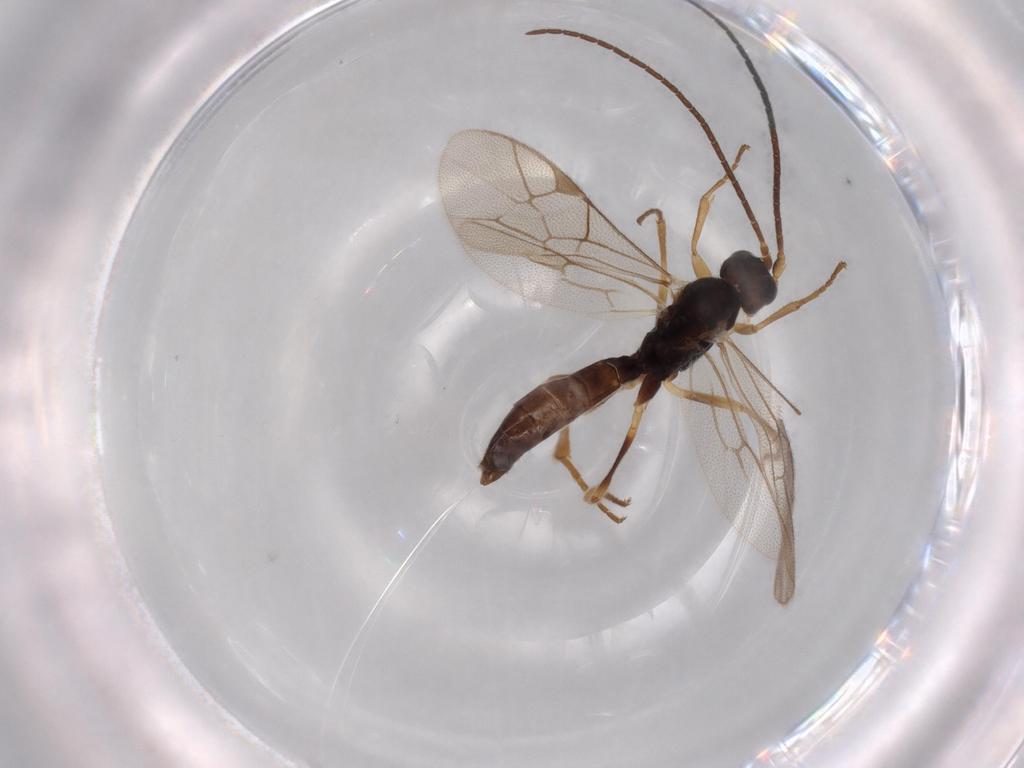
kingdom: Animalia
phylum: Arthropoda
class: Insecta
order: Hymenoptera
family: Ichneumonidae
